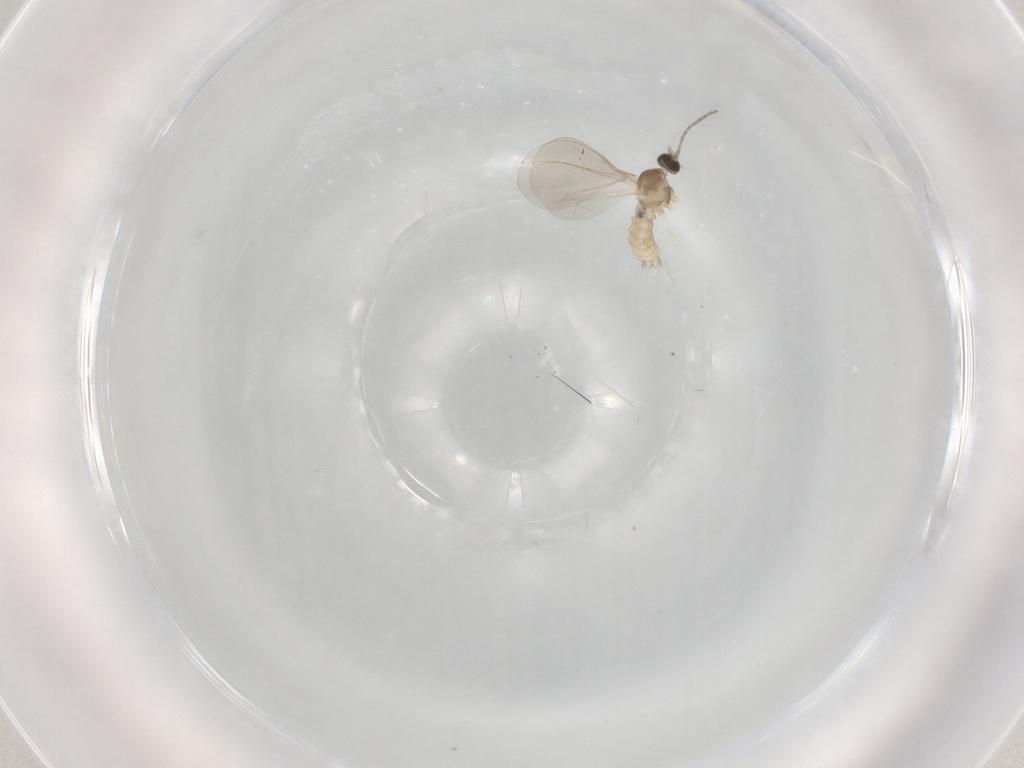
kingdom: Animalia
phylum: Arthropoda
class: Insecta
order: Diptera
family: Cecidomyiidae
